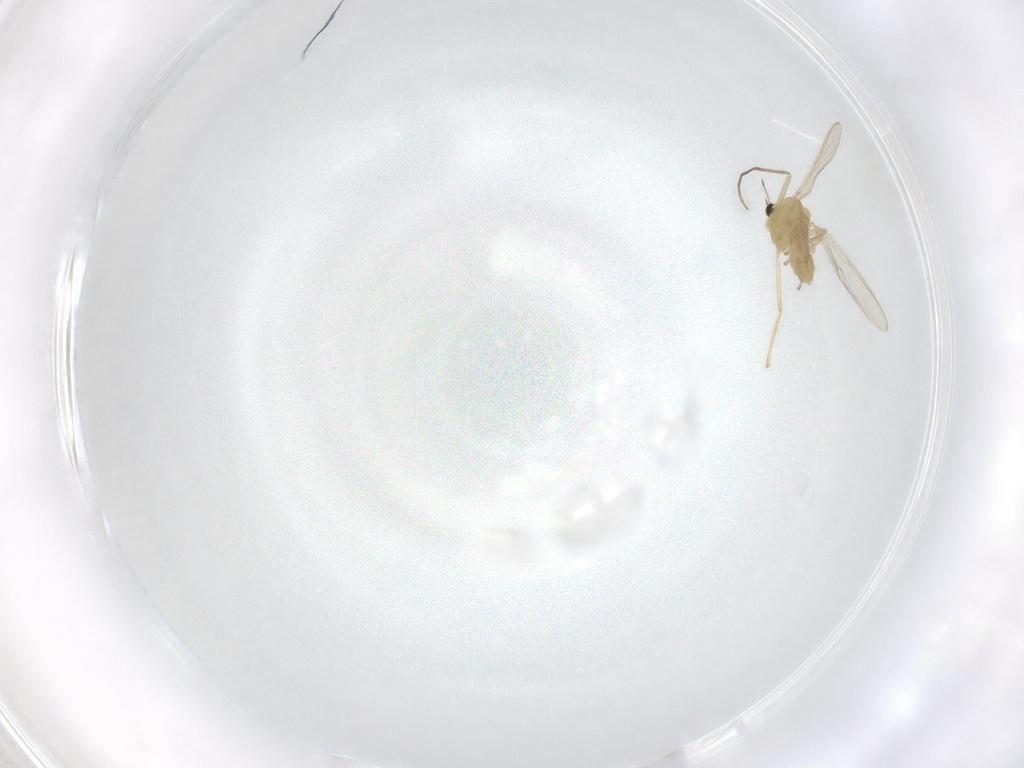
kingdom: Animalia
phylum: Arthropoda
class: Insecta
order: Diptera
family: Chironomidae
